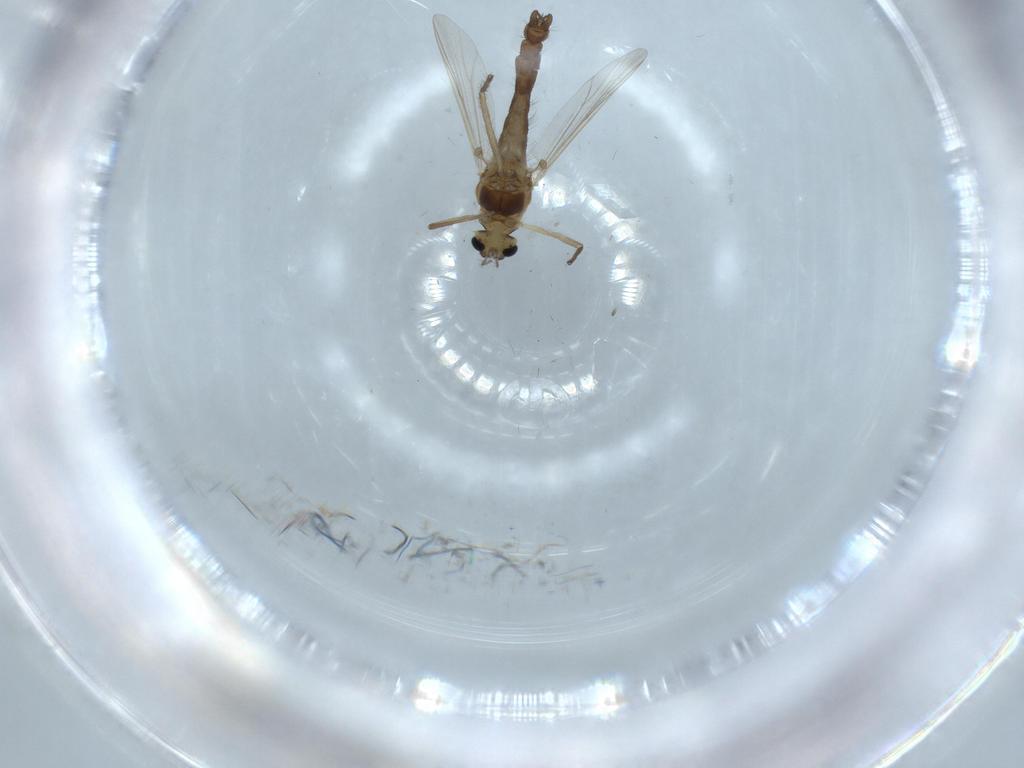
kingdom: Animalia
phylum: Arthropoda
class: Insecta
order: Diptera
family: Chironomidae
